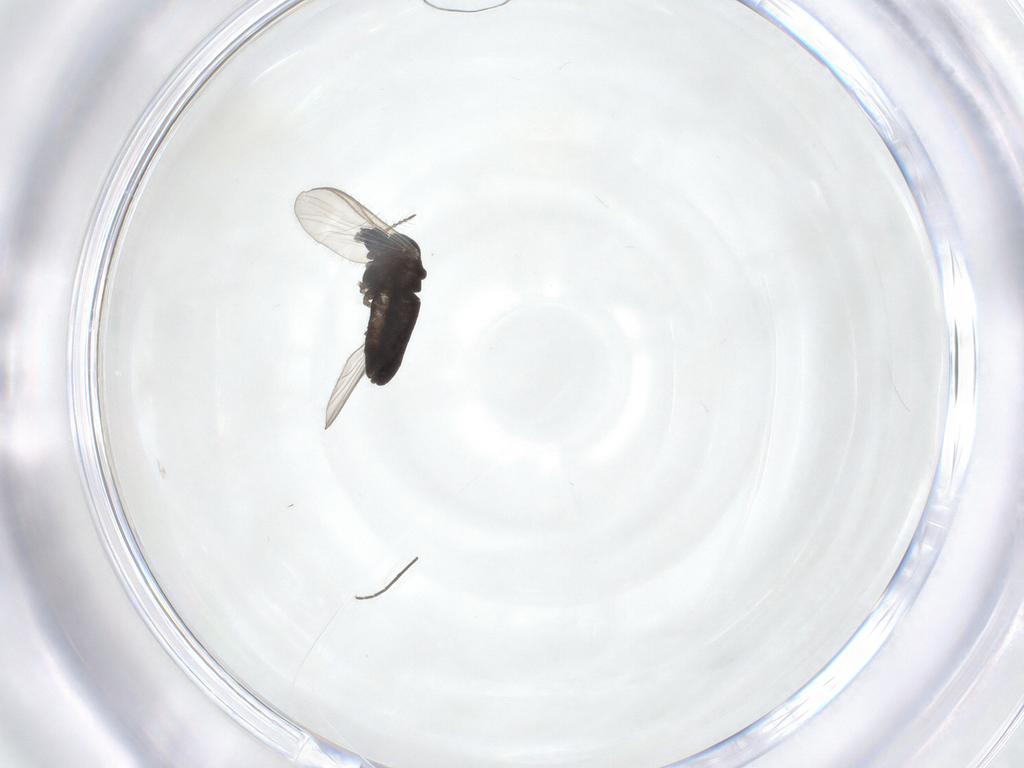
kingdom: Animalia
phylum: Arthropoda
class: Insecta
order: Diptera
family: Chironomidae
